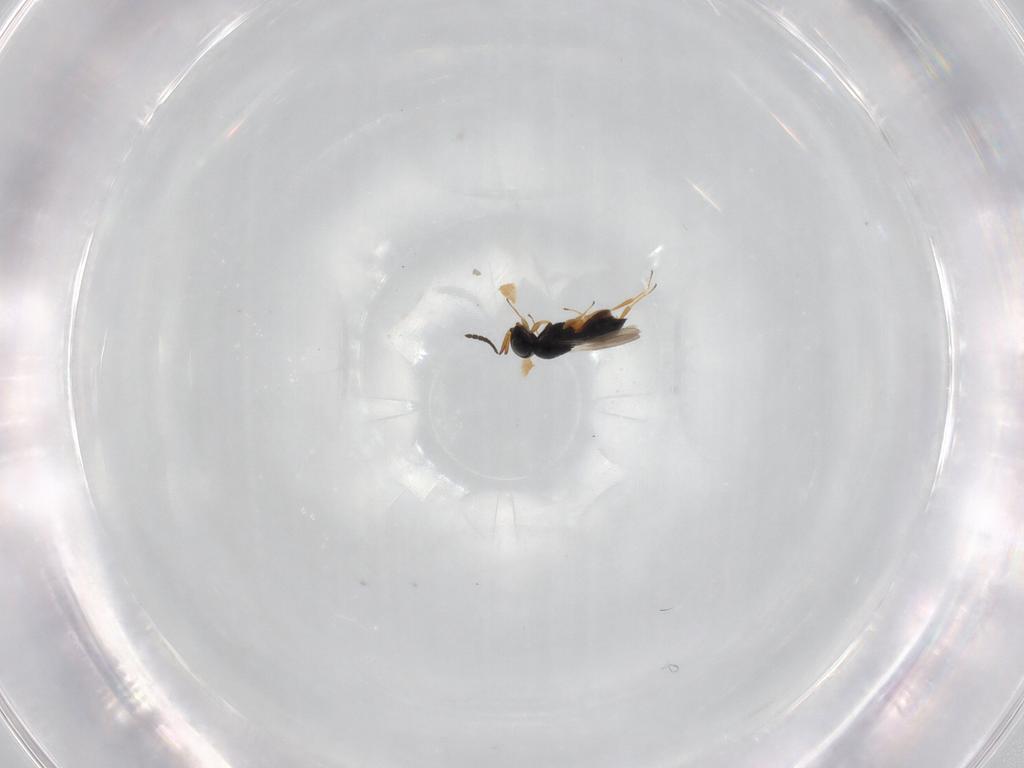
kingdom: Animalia
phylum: Arthropoda
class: Insecta
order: Hymenoptera
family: Scelionidae
